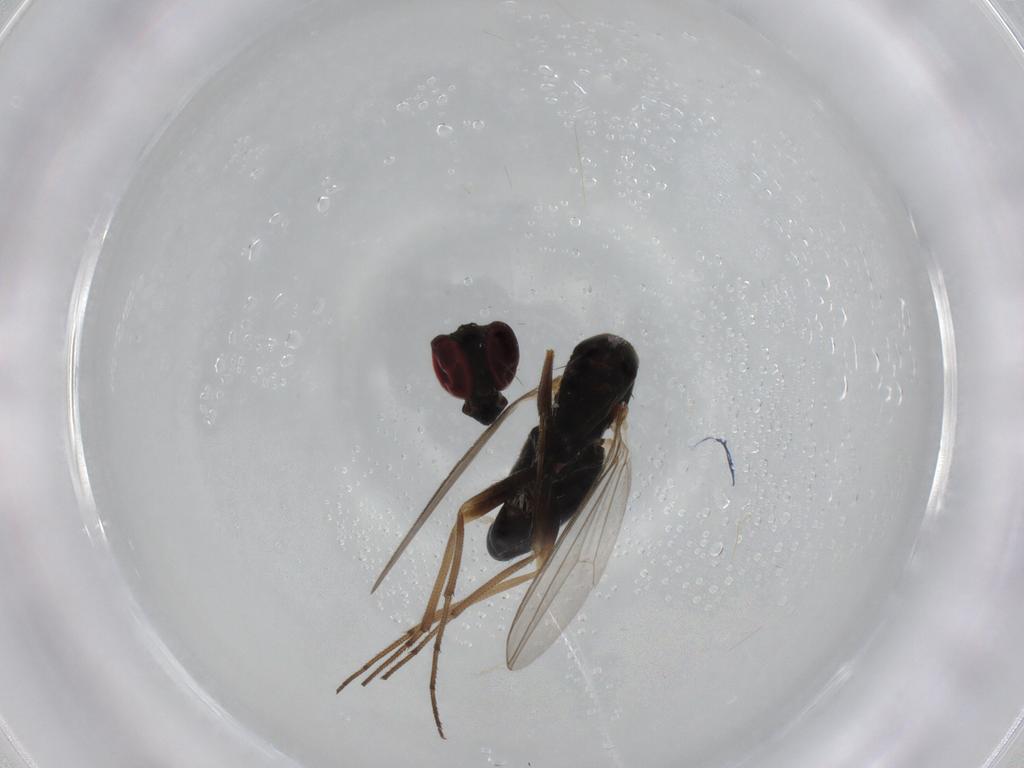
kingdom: Animalia
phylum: Arthropoda
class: Insecta
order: Diptera
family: Dolichopodidae
